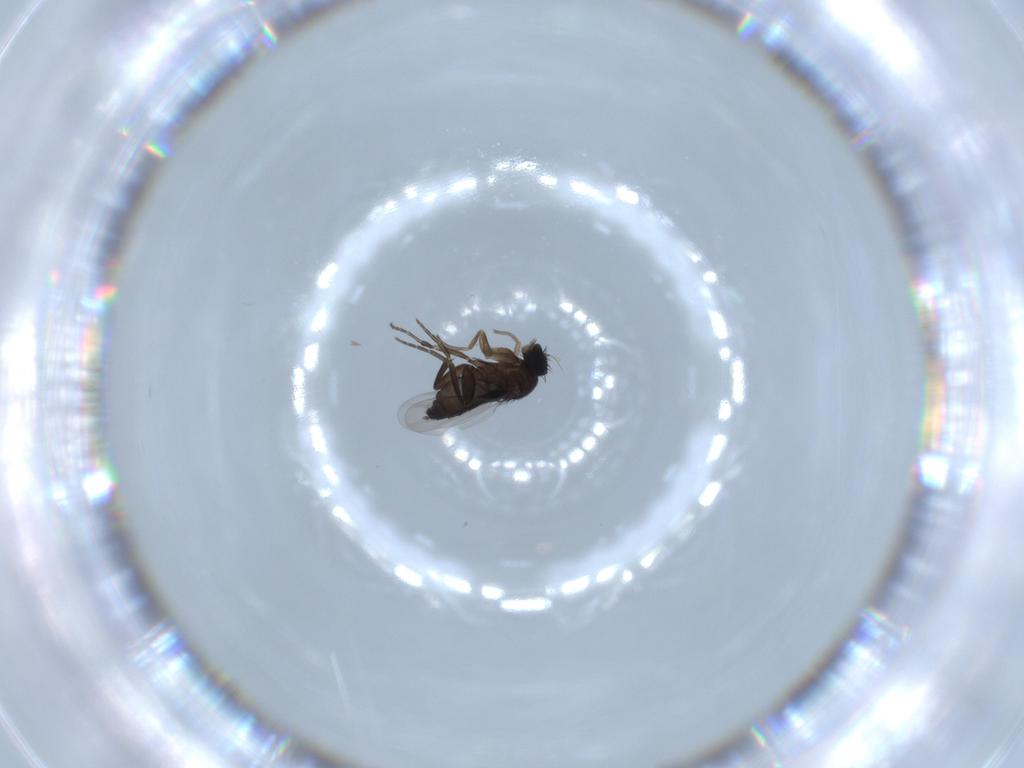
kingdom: Animalia
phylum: Arthropoda
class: Insecta
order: Diptera
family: Phoridae
